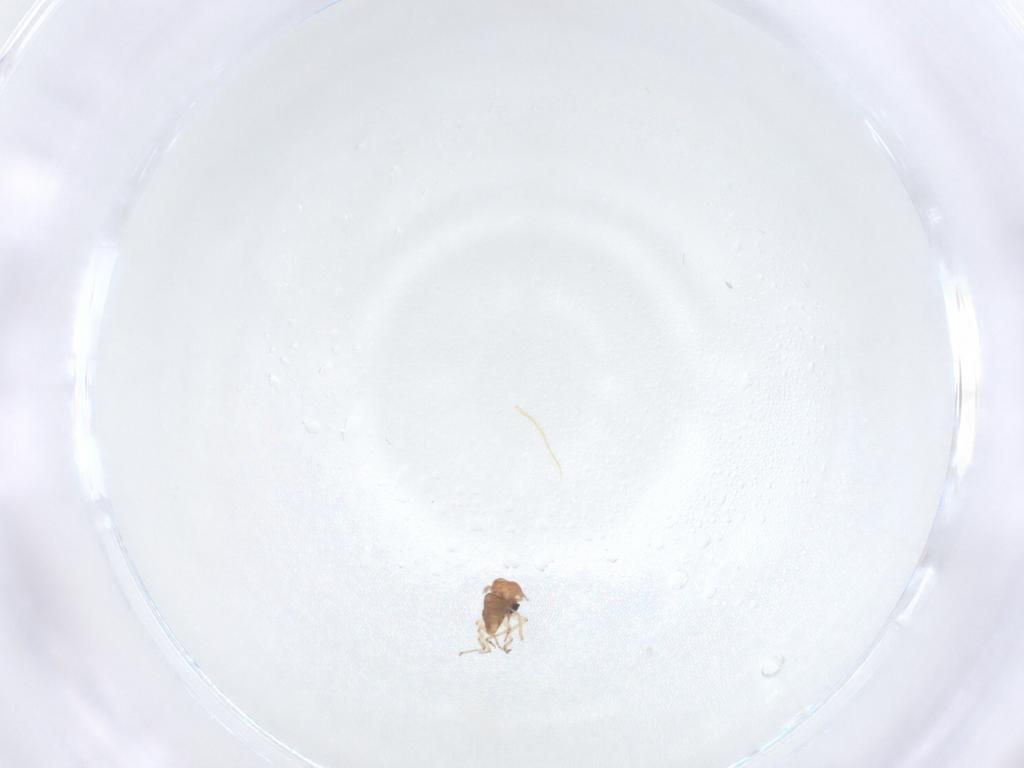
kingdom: Animalia
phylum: Arthropoda
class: Insecta
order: Diptera
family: Chironomidae
